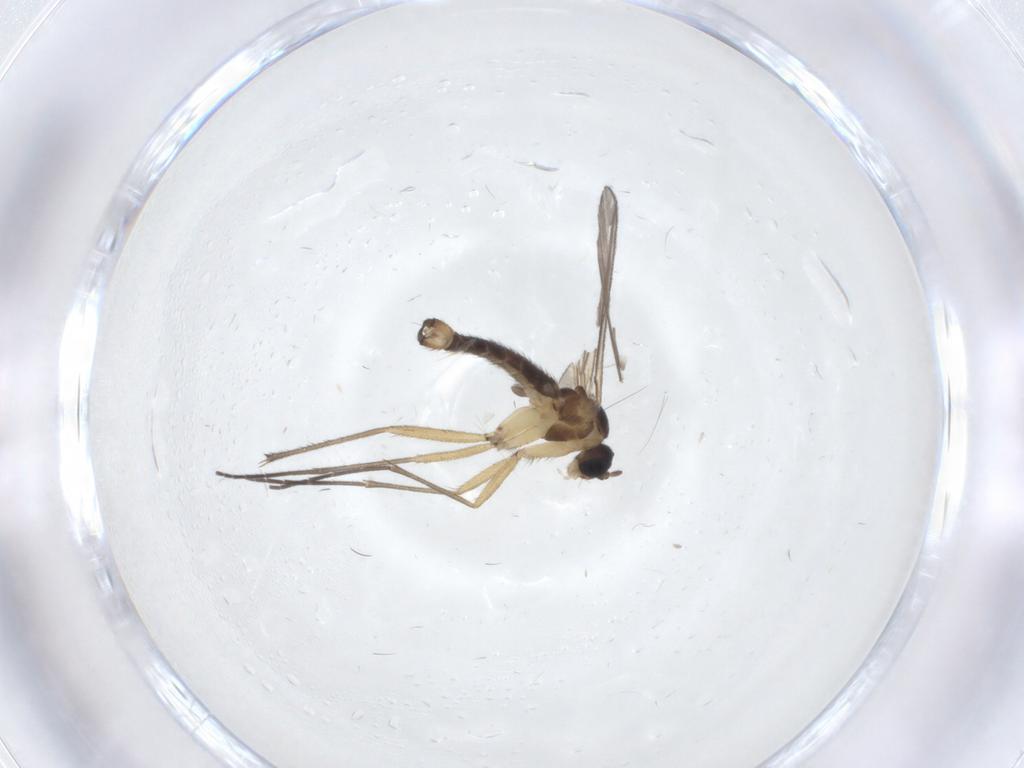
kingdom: Animalia
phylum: Arthropoda
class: Insecta
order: Diptera
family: Sciaridae
